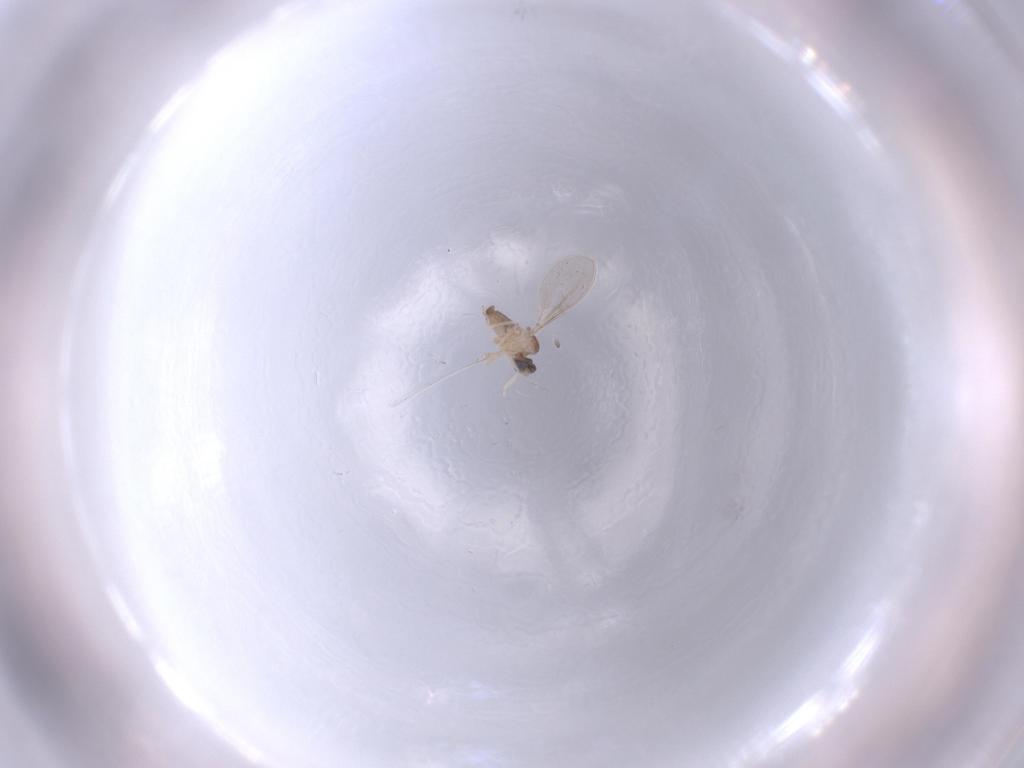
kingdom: Animalia
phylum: Arthropoda
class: Insecta
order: Diptera
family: Cecidomyiidae
